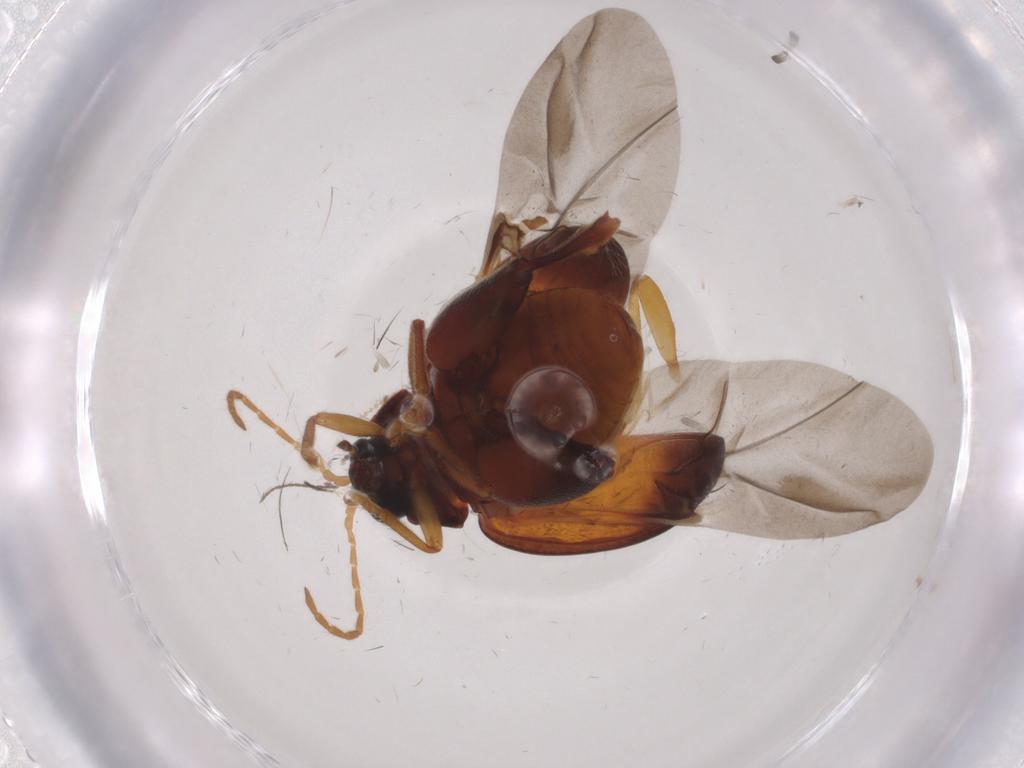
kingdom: Animalia
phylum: Arthropoda
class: Insecta
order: Coleoptera
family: Chrysomelidae
